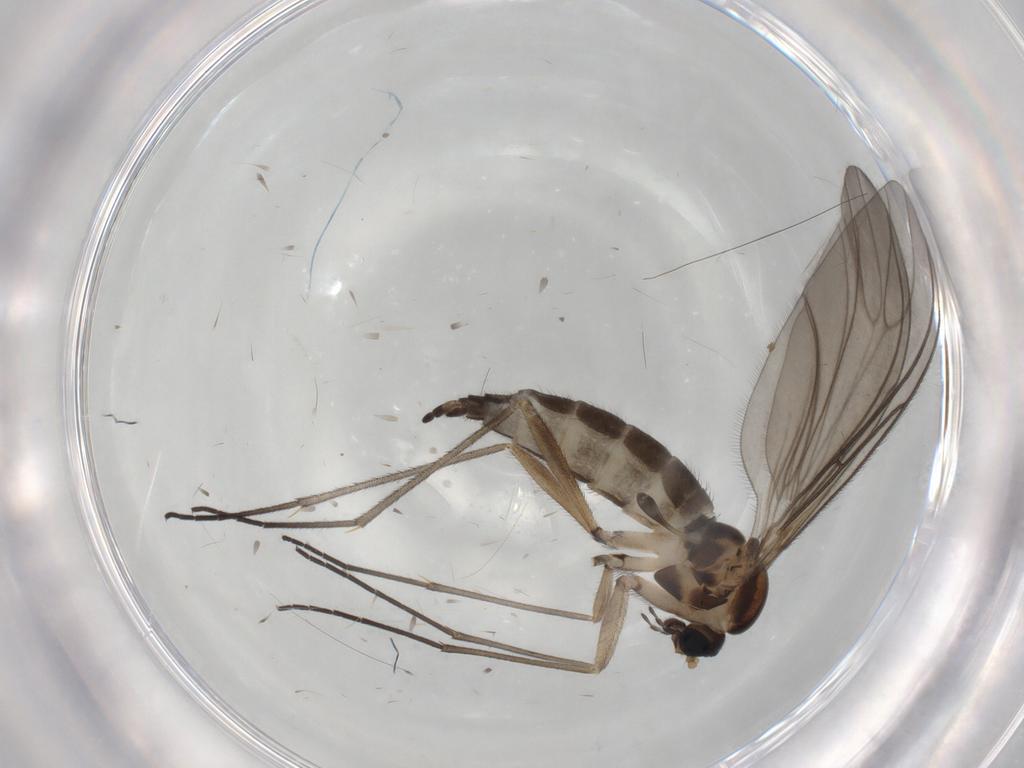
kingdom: Animalia
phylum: Arthropoda
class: Insecta
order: Diptera
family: Sciaridae
